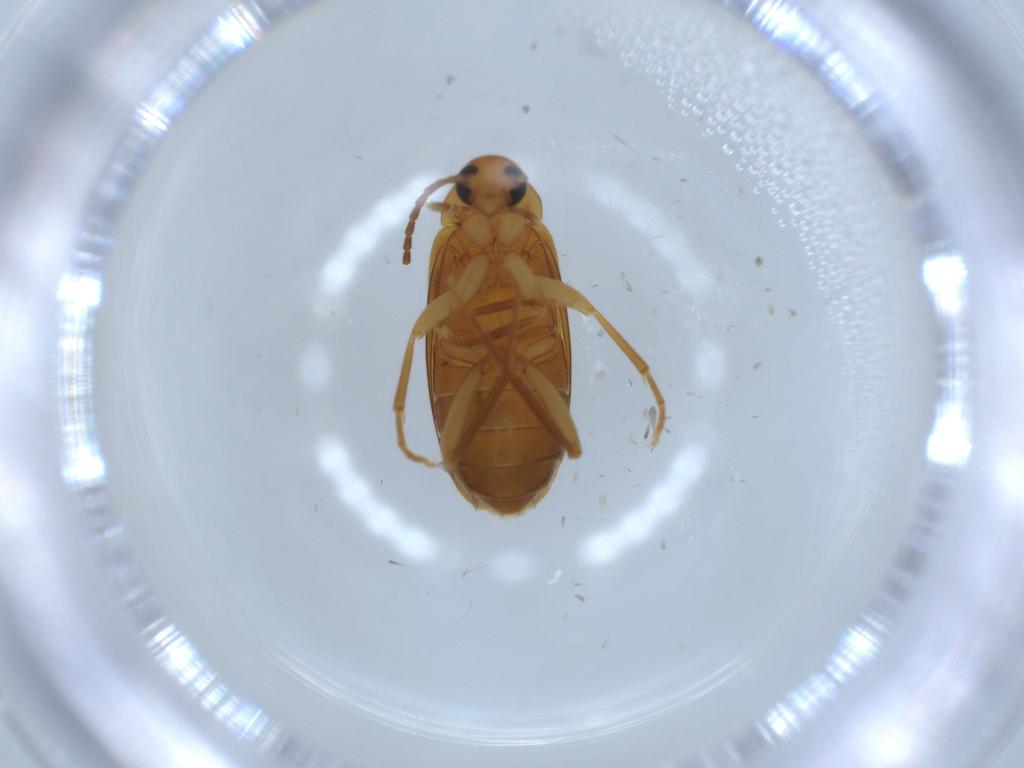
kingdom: Animalia
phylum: Arthropoda
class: Insecta
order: Coleoptera
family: Scraptiidae
